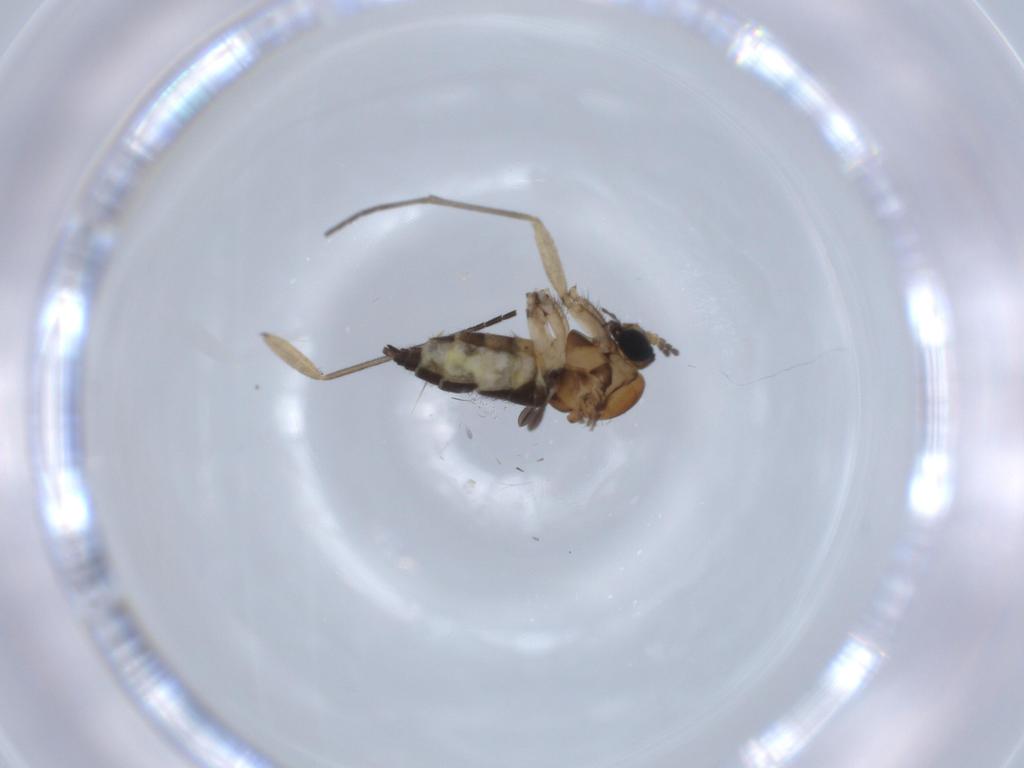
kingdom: Animalia
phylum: Arthropoda
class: Insecta
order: Diptera
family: Sciaridae
